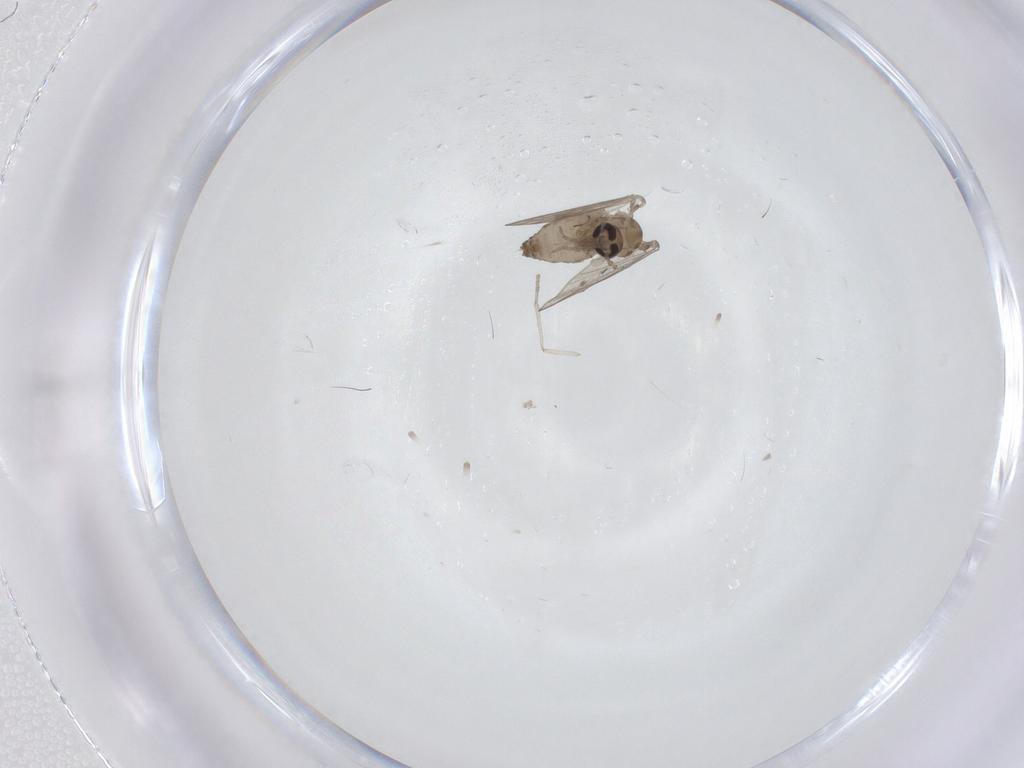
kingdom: Animalia
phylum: Arthropoda
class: Insecta
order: Diptera
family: Psychodidae
